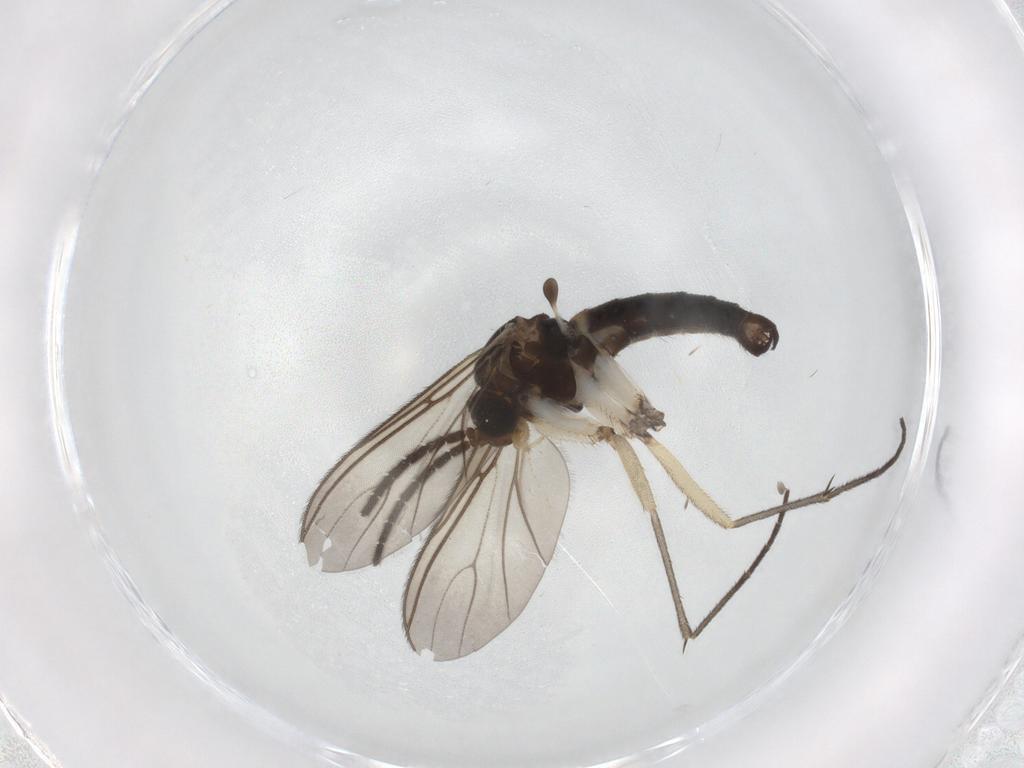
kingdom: Animalia
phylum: Arthropoda
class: Insecta
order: Diptera
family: Sciaridae
